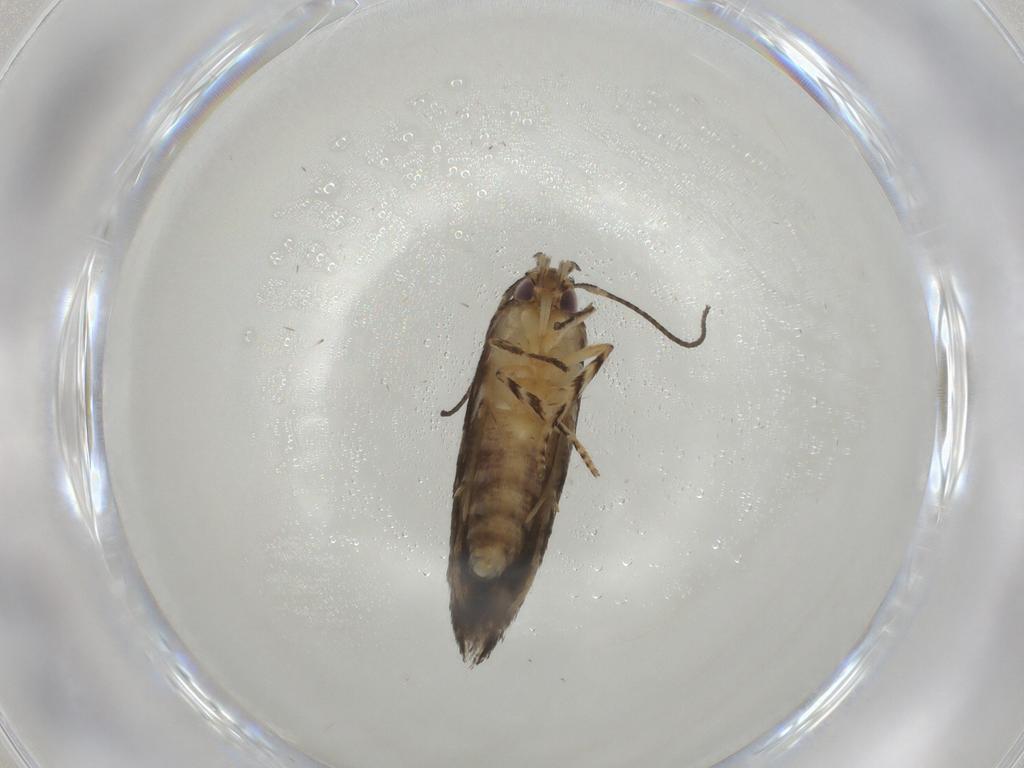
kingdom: Animalia
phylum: Arthropoda
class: Insecta
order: Lepidoptera
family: Elachistidae
